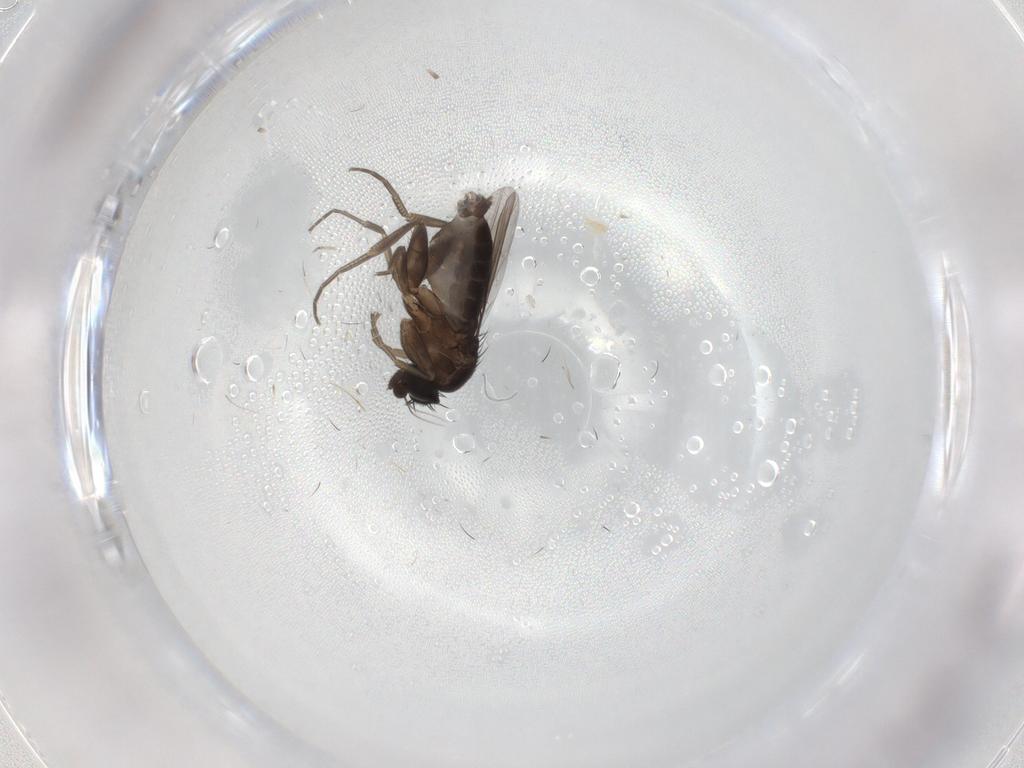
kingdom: Animalia
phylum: Arthropoda
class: Insecta
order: Diptera
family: Phoridae
